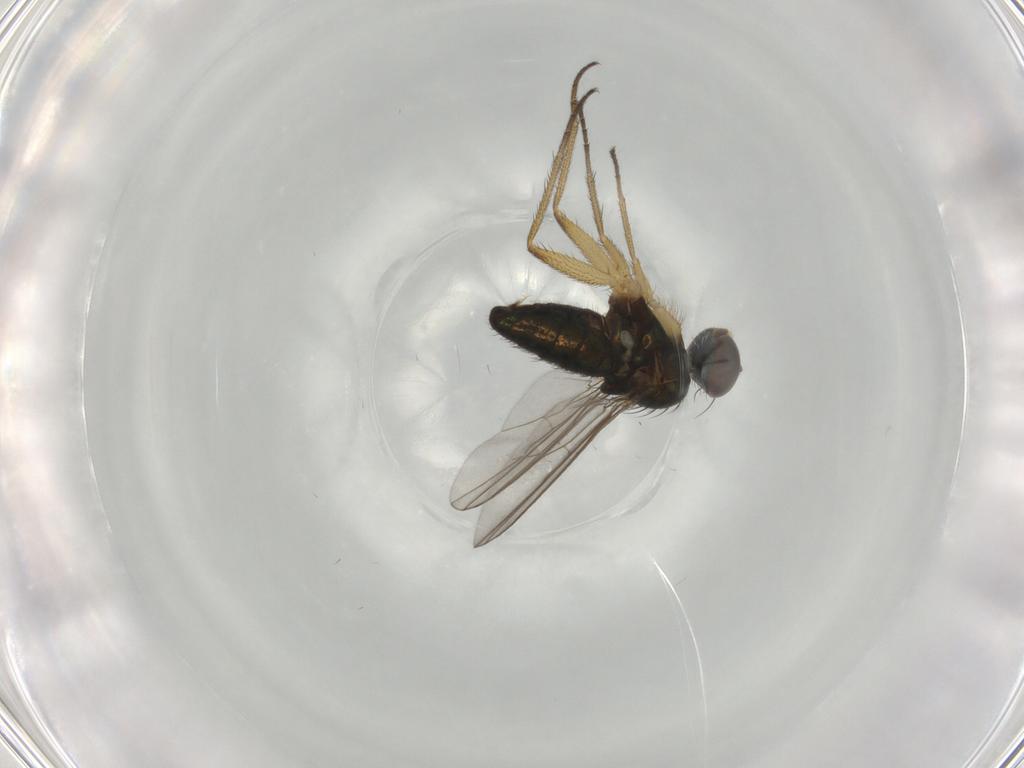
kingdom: Animalia
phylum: Arthropoda
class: Insecta
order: Diptera
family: Dolichopodidae
